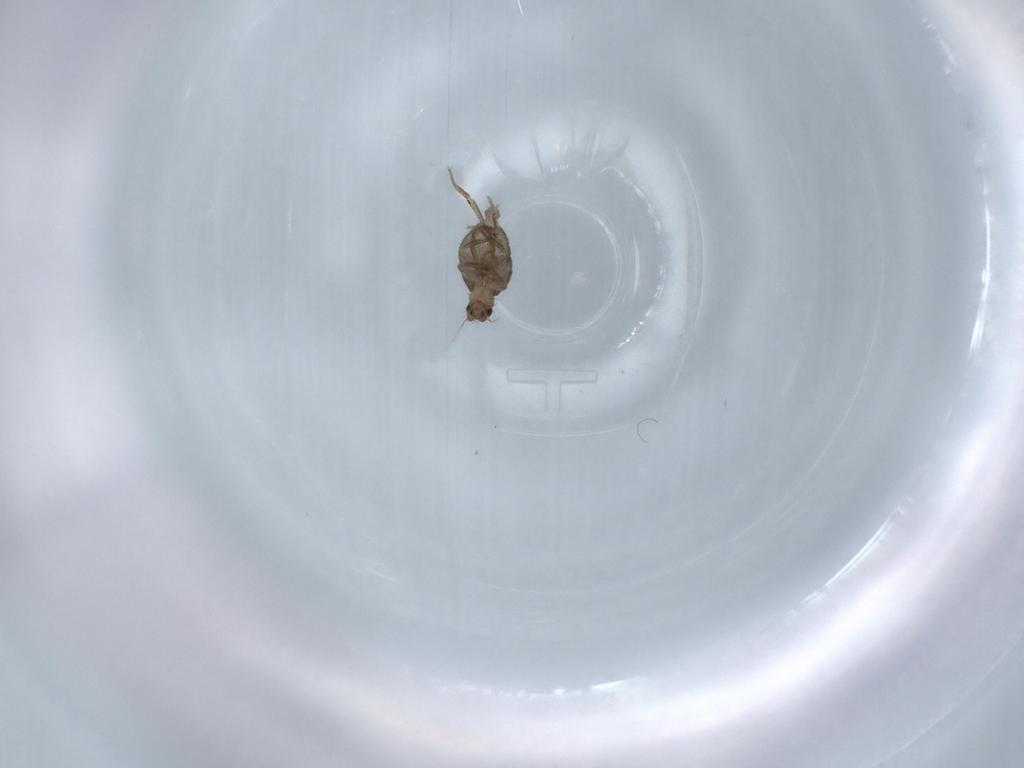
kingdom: Animalia
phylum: Arthropoda
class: Insecta
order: Diptera
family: Phoridae
